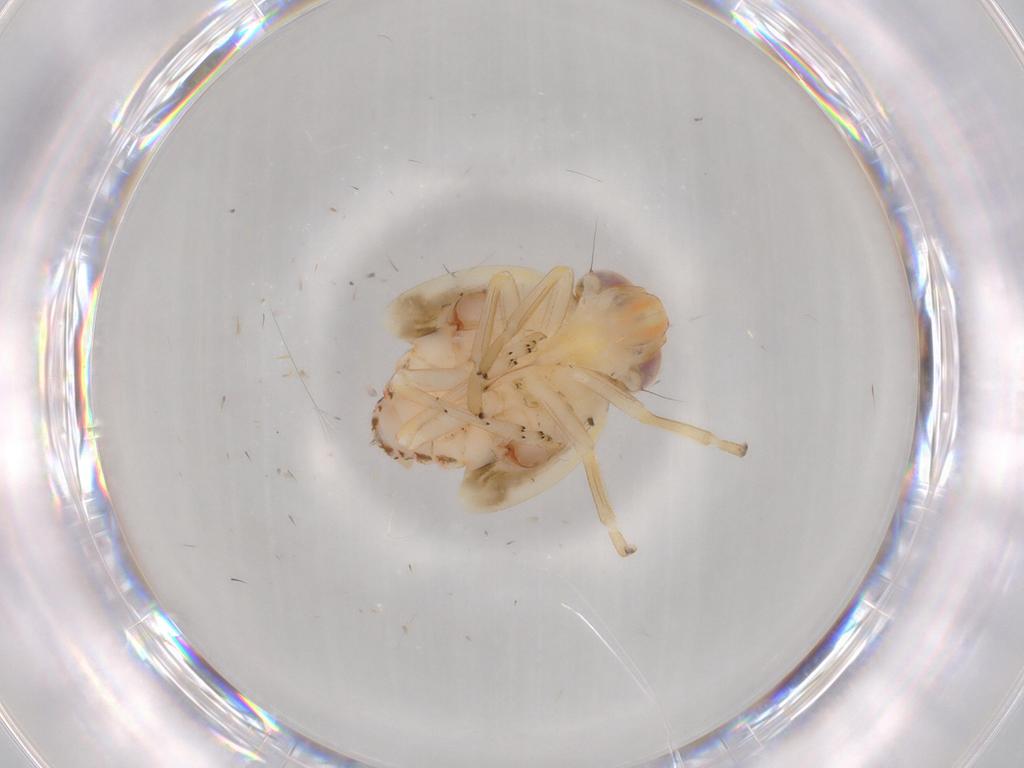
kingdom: Animalia
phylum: Arthropoda
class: Insecta
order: Hemiptera
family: Nogodinidae
